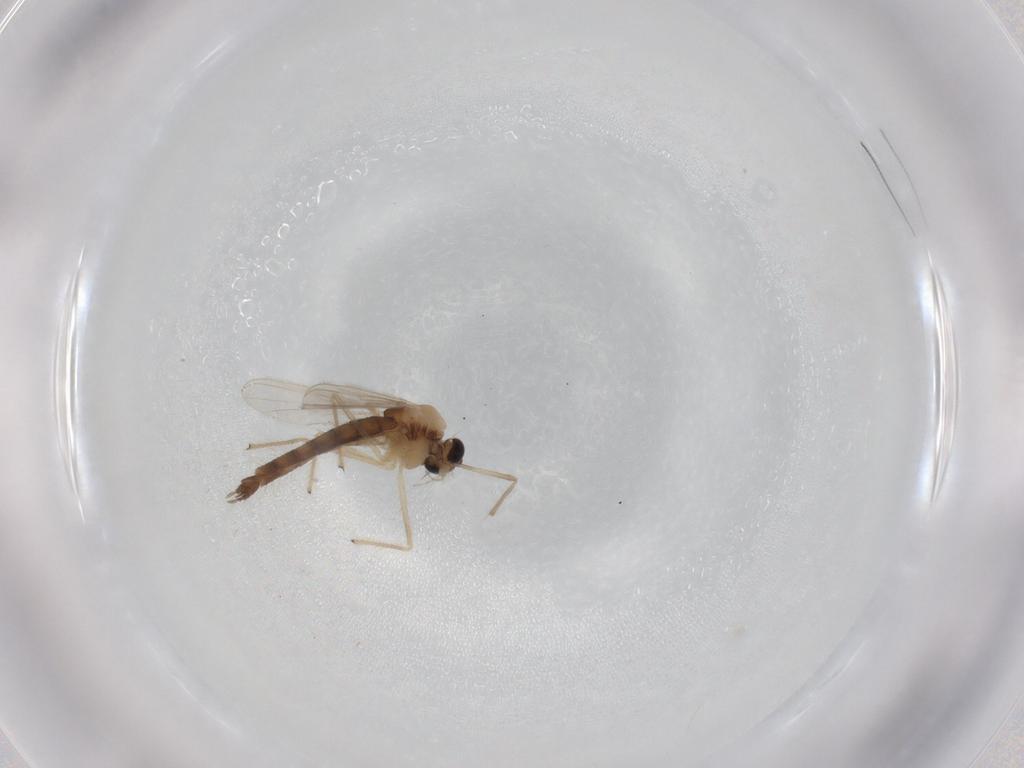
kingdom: Animalia
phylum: Arthropoda
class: Insecta
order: Diptera
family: Chironomidae
